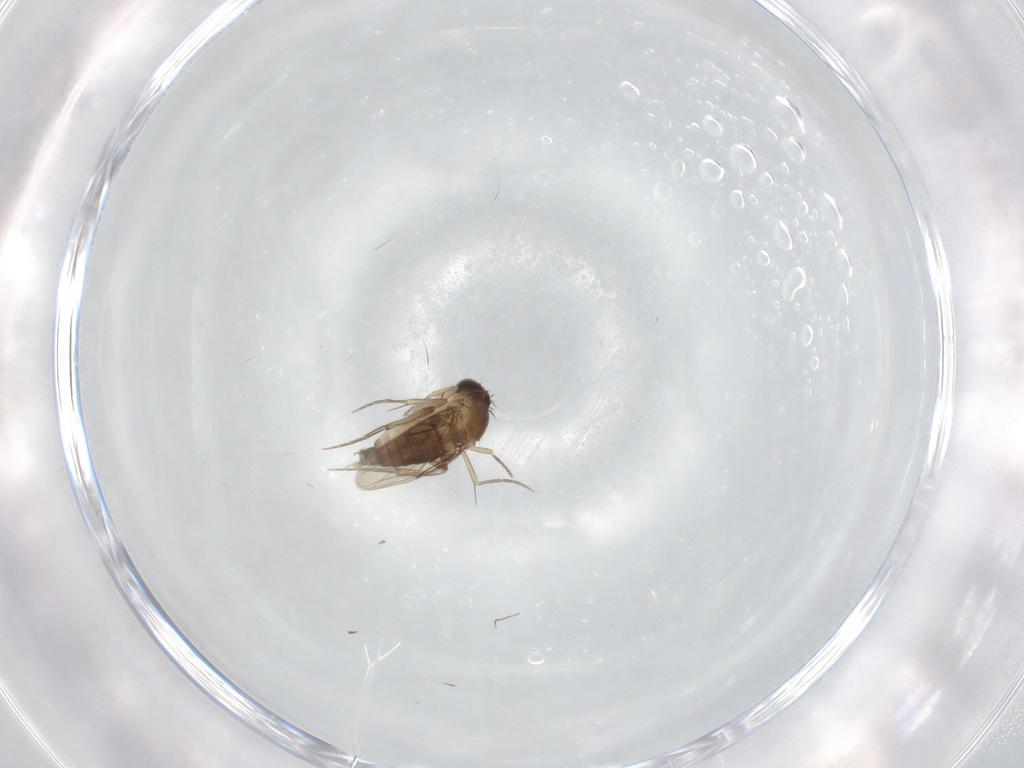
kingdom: Animalia
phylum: Arthropoda
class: Insecta
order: Diptera
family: Phoridae
